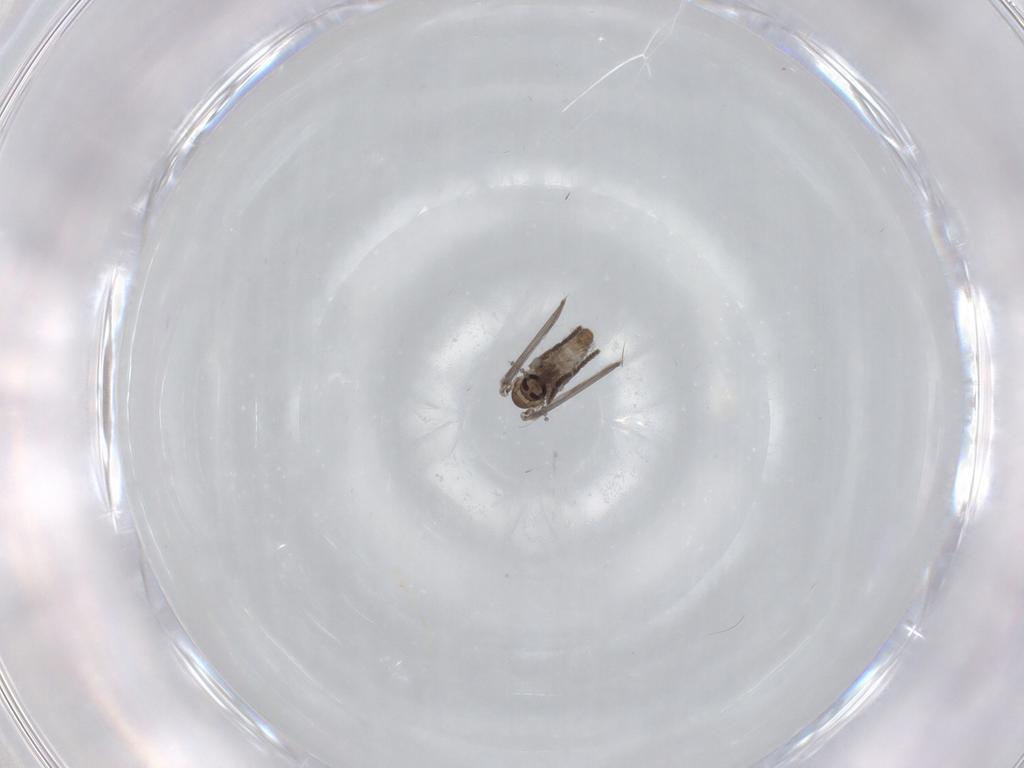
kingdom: Animalia
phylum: Arthropoda
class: Insecta
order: Diptera
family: Psychodidae
